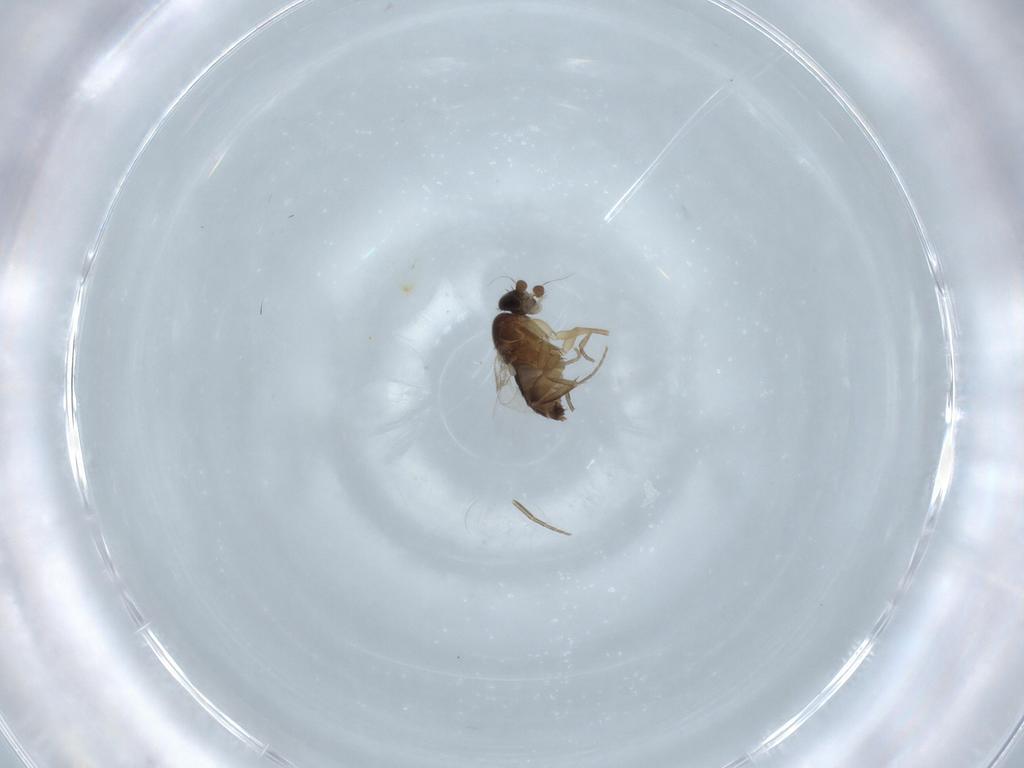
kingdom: Animalia
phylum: Arthropoda
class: Insecta
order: Diptera
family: Phoridae
